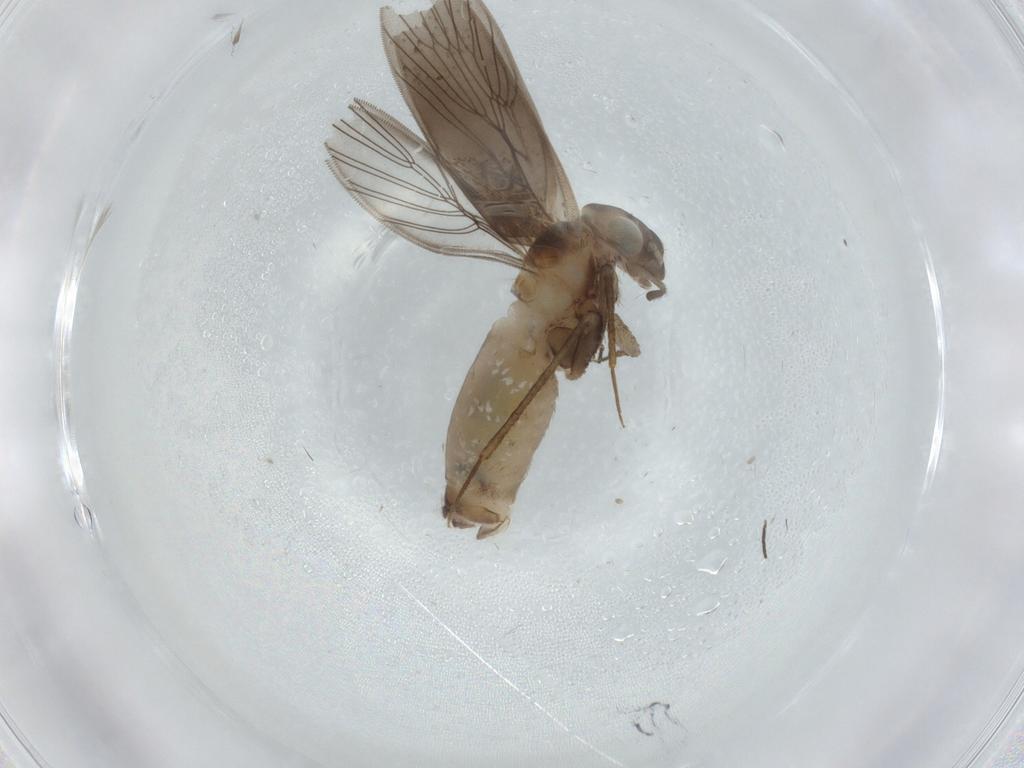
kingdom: Animalia
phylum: Arthropoda
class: Insecta
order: Psocodea
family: Lepidopsocidae
